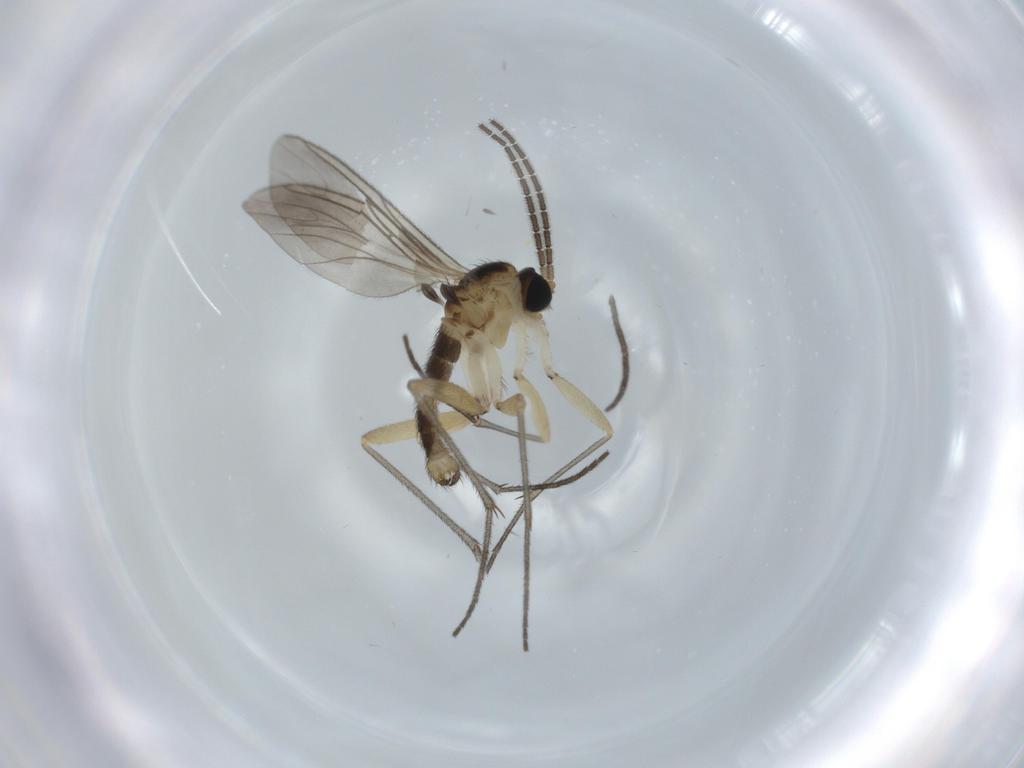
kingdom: Animalia
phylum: Arthropoda
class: Insecta
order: Diptera
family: Sciaridae
